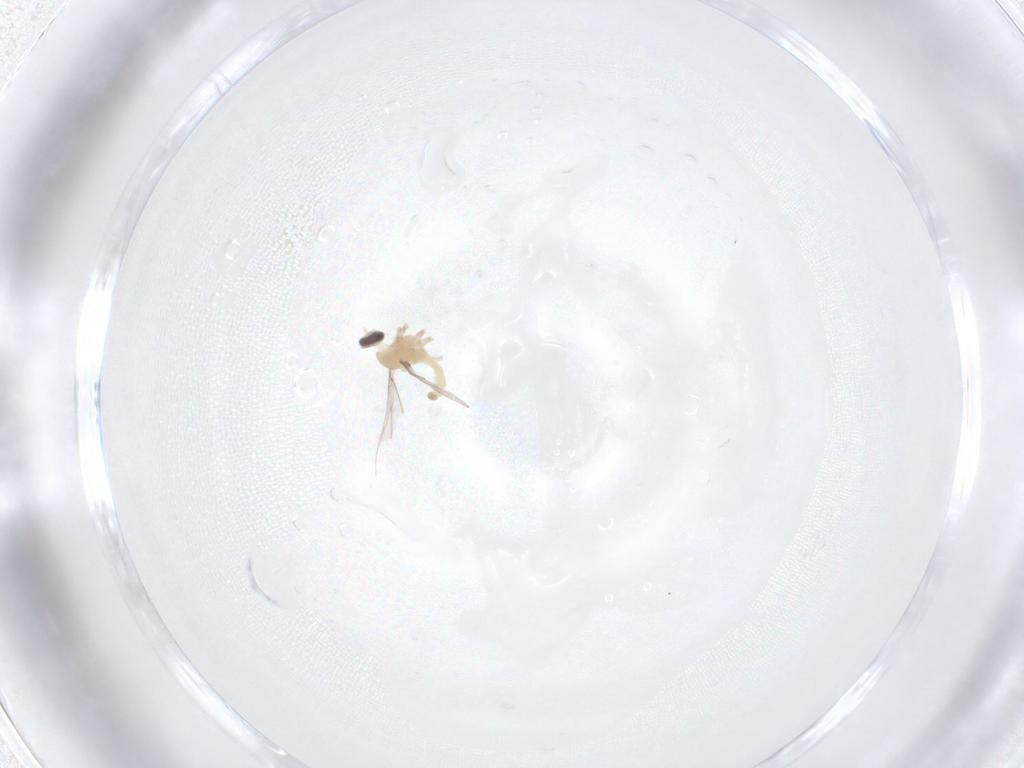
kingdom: Animalia
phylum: Arthropoda
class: Insecta
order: Diptera
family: Cecidomyiidae
